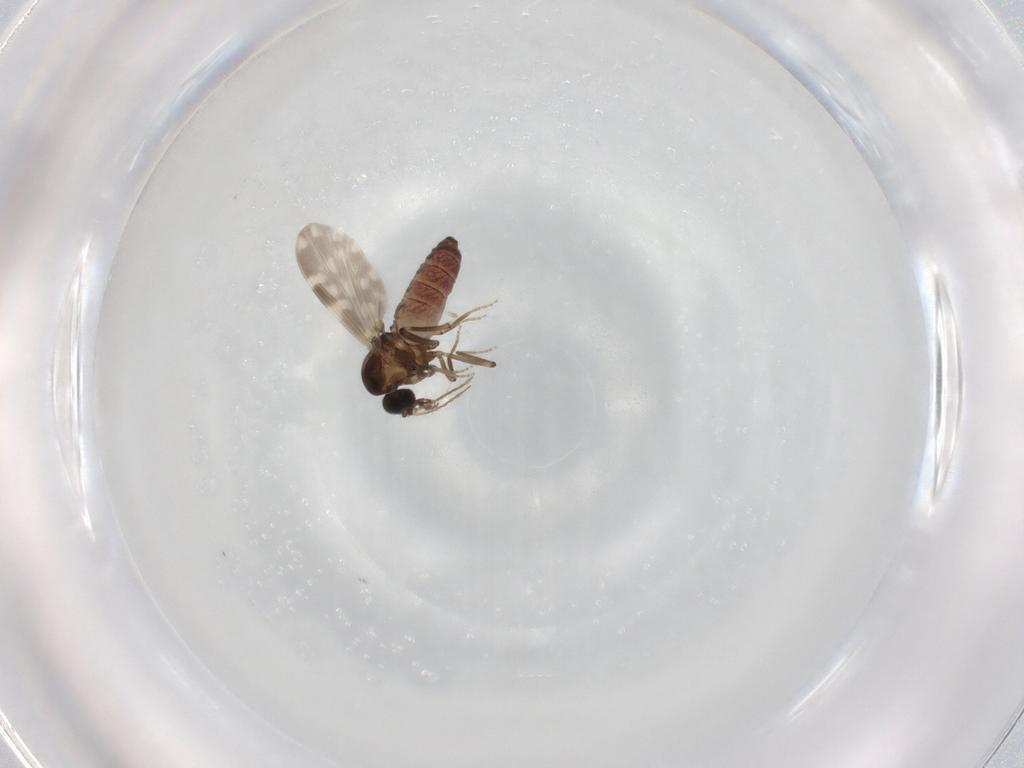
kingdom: Animalia
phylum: Arthropoda
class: Insecta
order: Diptera
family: Ceratopogonidae
